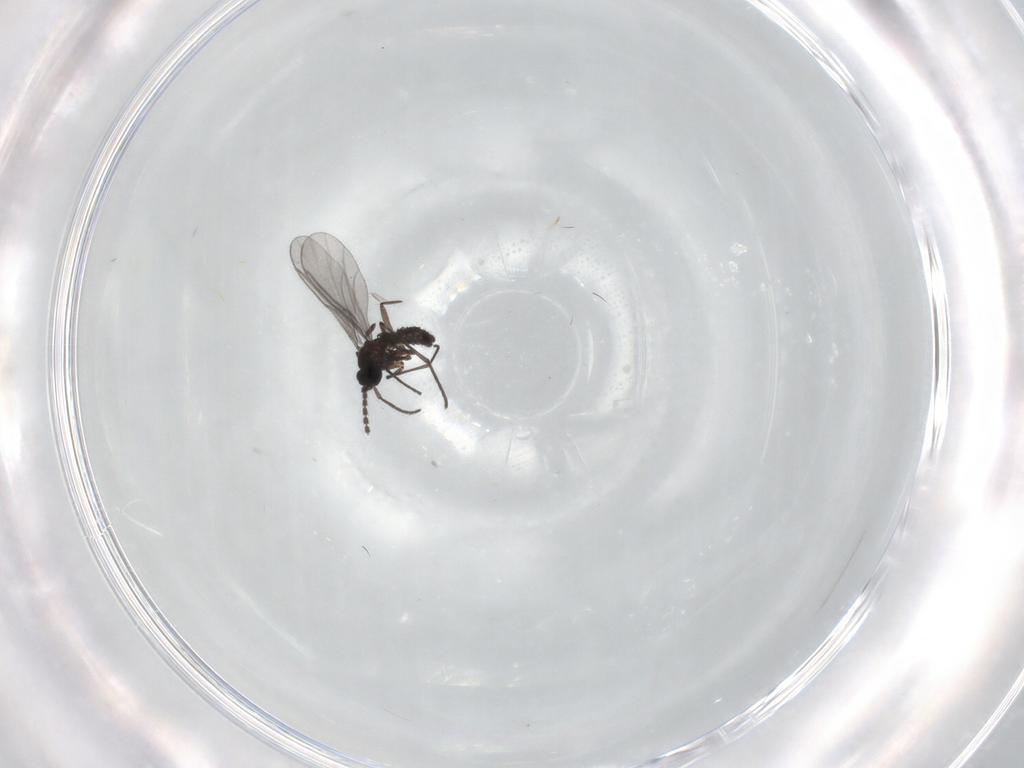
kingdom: Animalia
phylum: Arthropoda
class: Insecta
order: Diptera
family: Limoniidae
